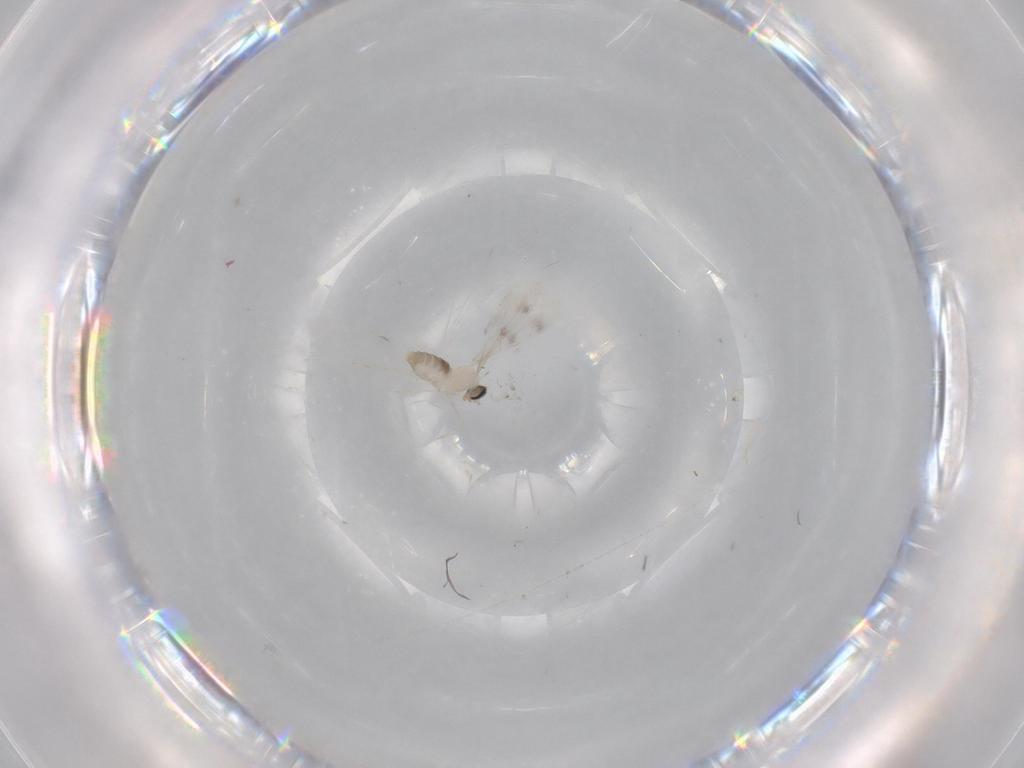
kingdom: Animalia
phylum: Arthropoda
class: Insecta
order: Diptera
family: Cecidomyiidae
